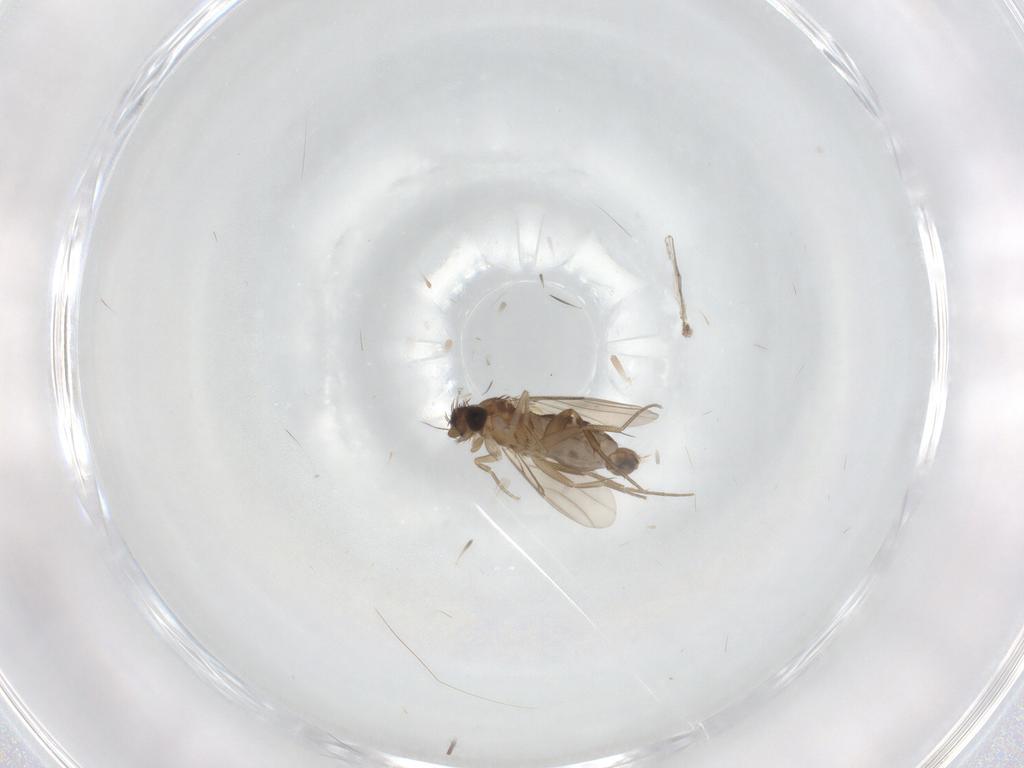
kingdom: Animalia
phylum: Arthropoda
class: Insecta
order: Diptera
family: Phoridae
